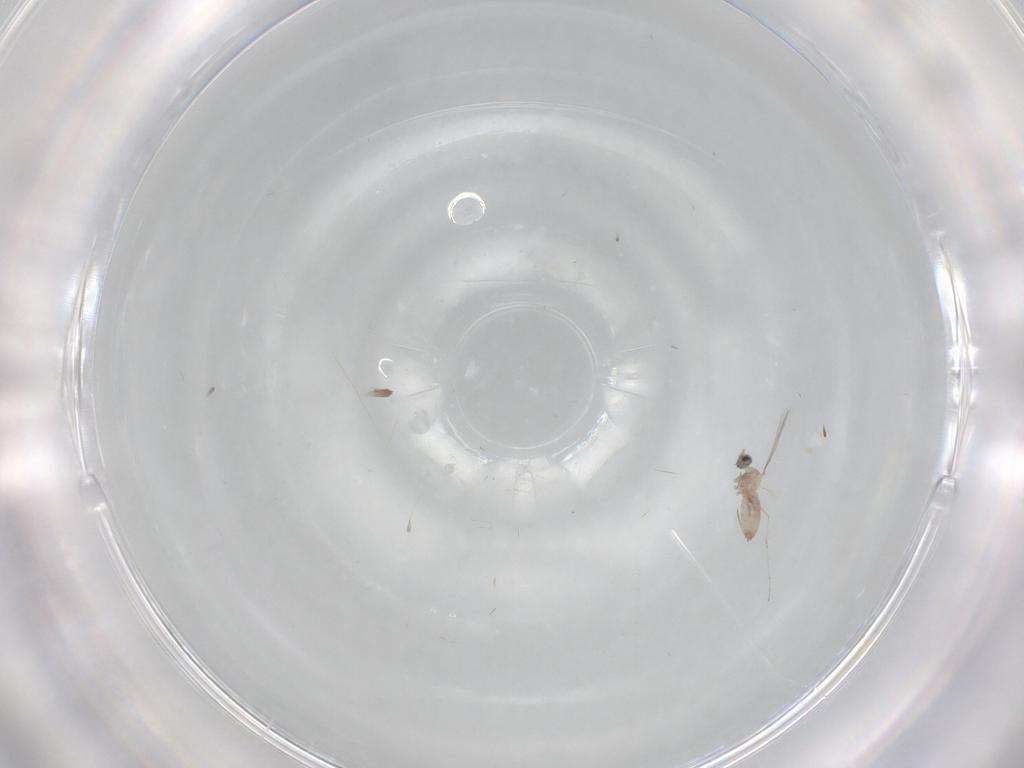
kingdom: Animalia
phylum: Arthropoda
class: Insecta
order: Diptera
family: Cecidomyiidae
